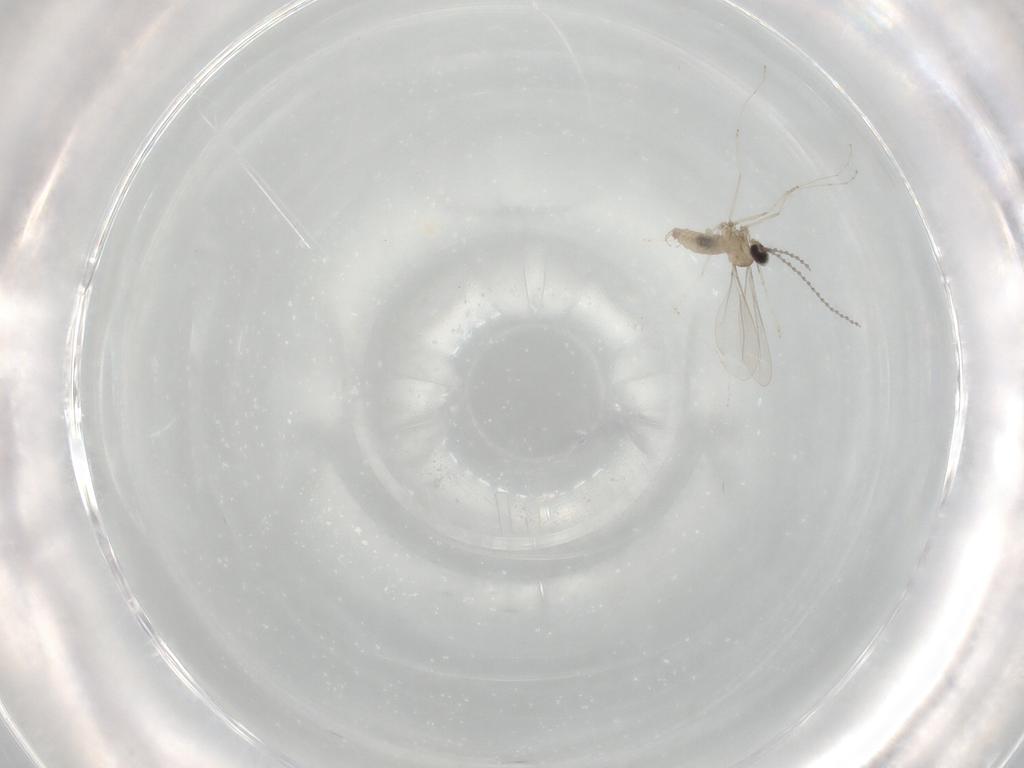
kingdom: Animalia
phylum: Arthropoda
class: Insecta
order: Diptera
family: Cecidomyiidae
